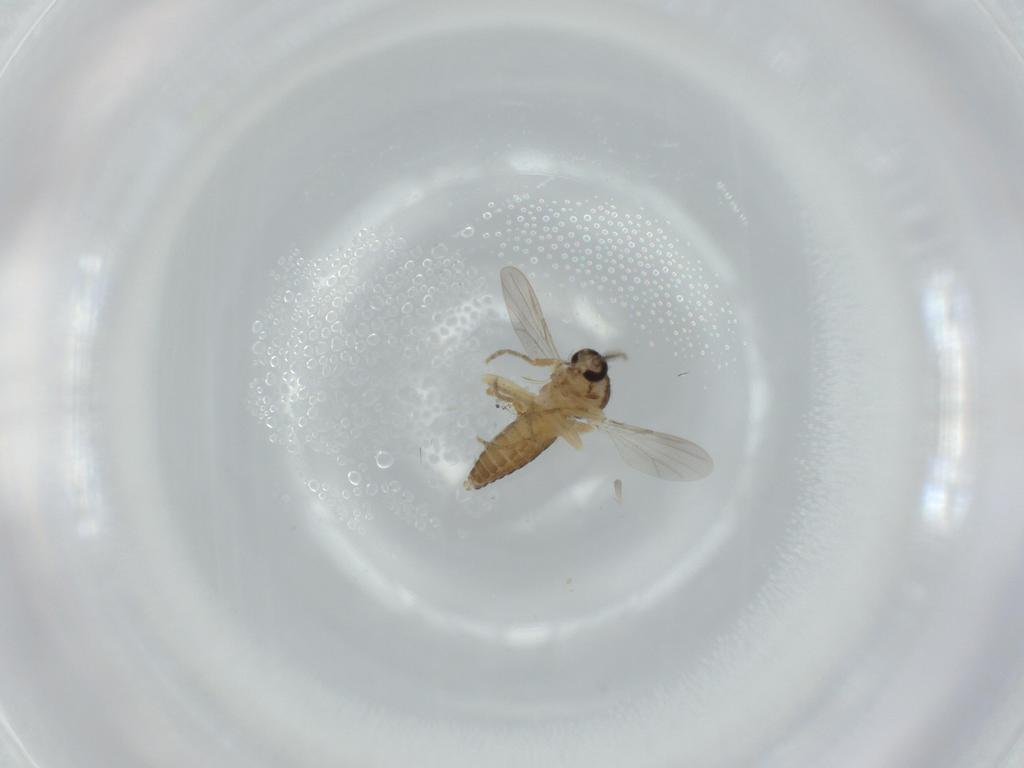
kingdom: Animalia
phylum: Arthropoda
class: Insecta
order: Diptera
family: Ceratopogonidae
